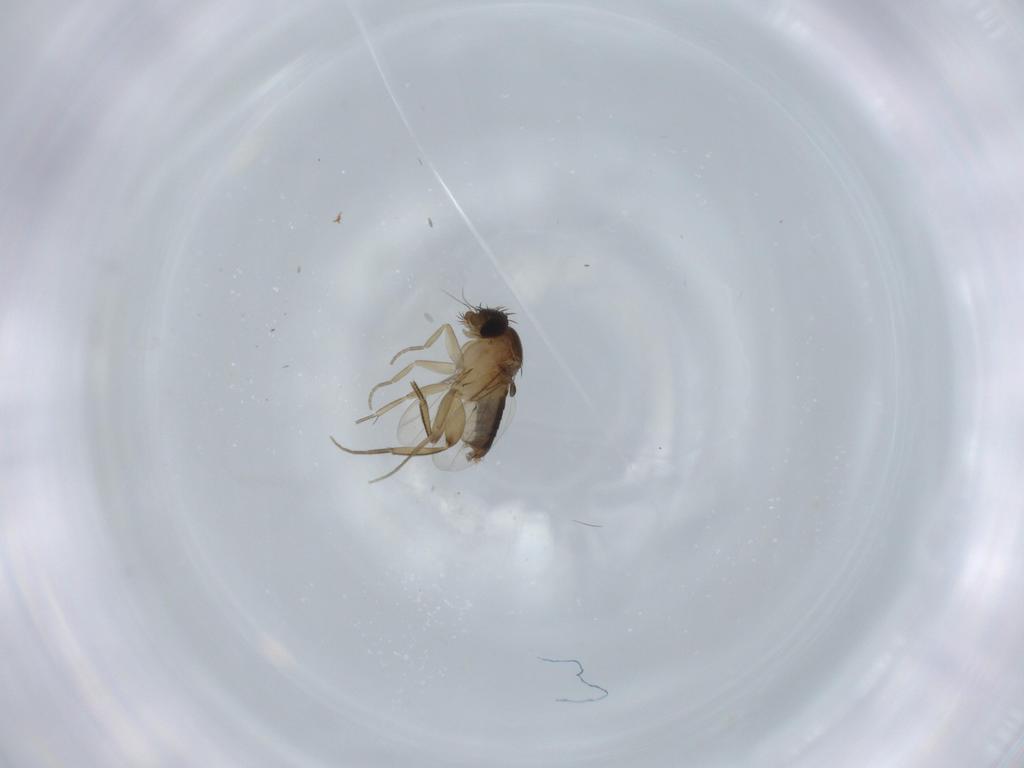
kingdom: Animalia
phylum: Arthropoda
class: Insecta
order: Diptera
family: Phoridae
